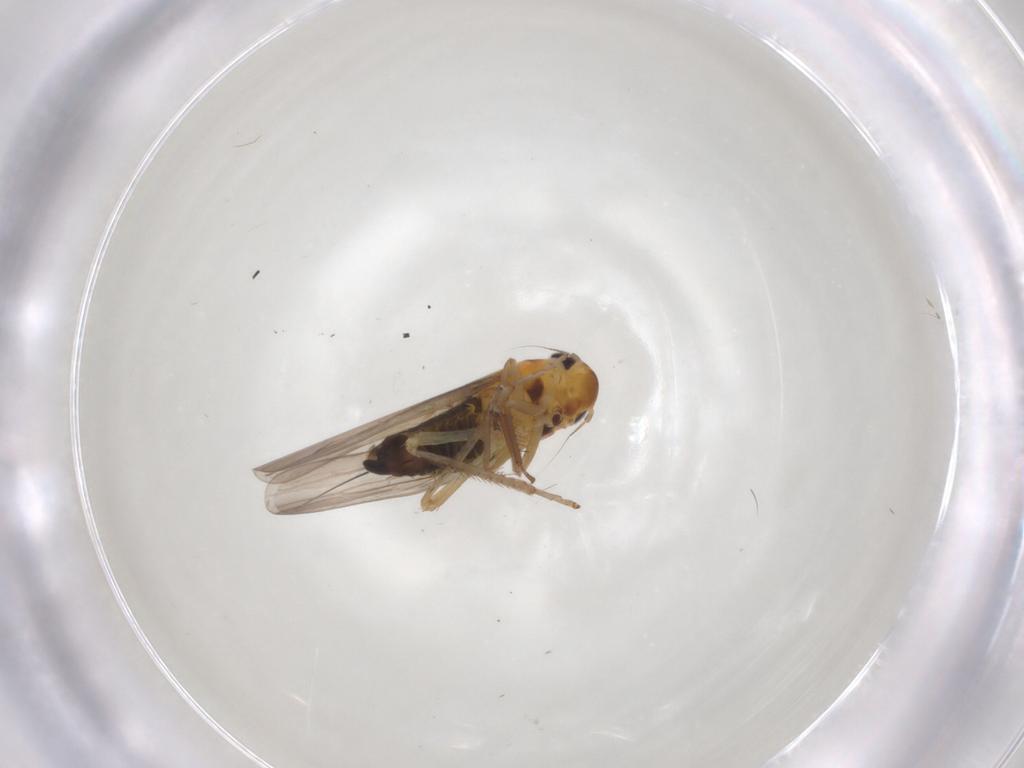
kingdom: Animalia
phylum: Arthropoda
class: Insecta
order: Hemiptera
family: Cicadellidae
